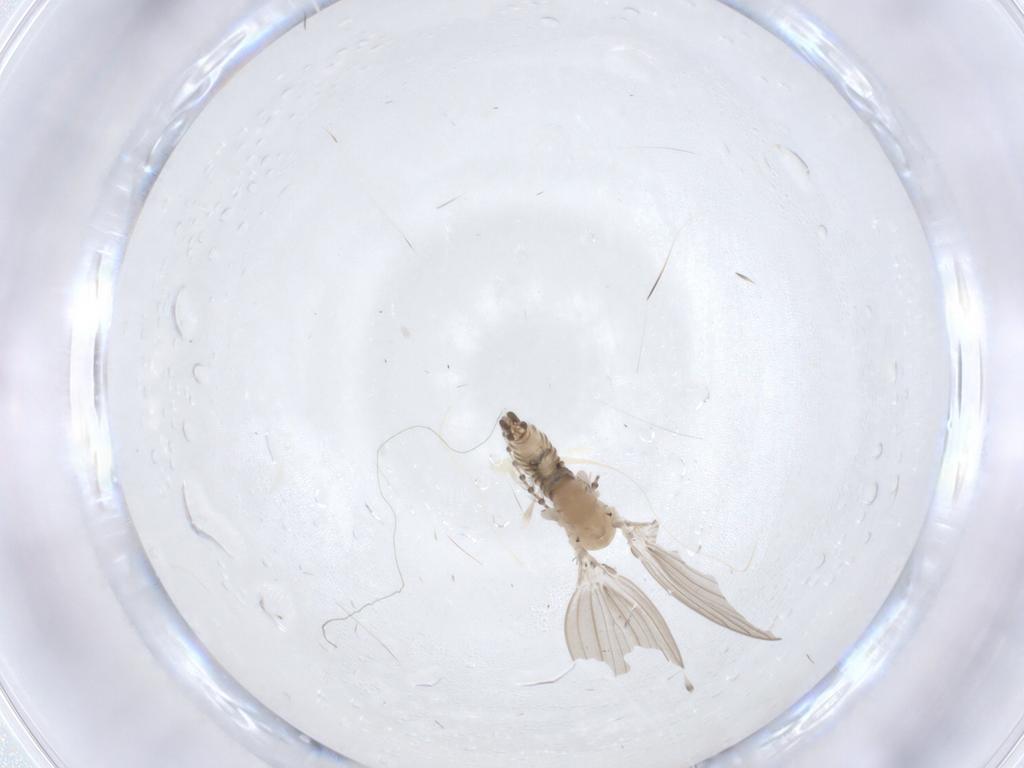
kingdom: Animalia
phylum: Arthropoda
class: Insecta
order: Diptera
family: Psychodidae
